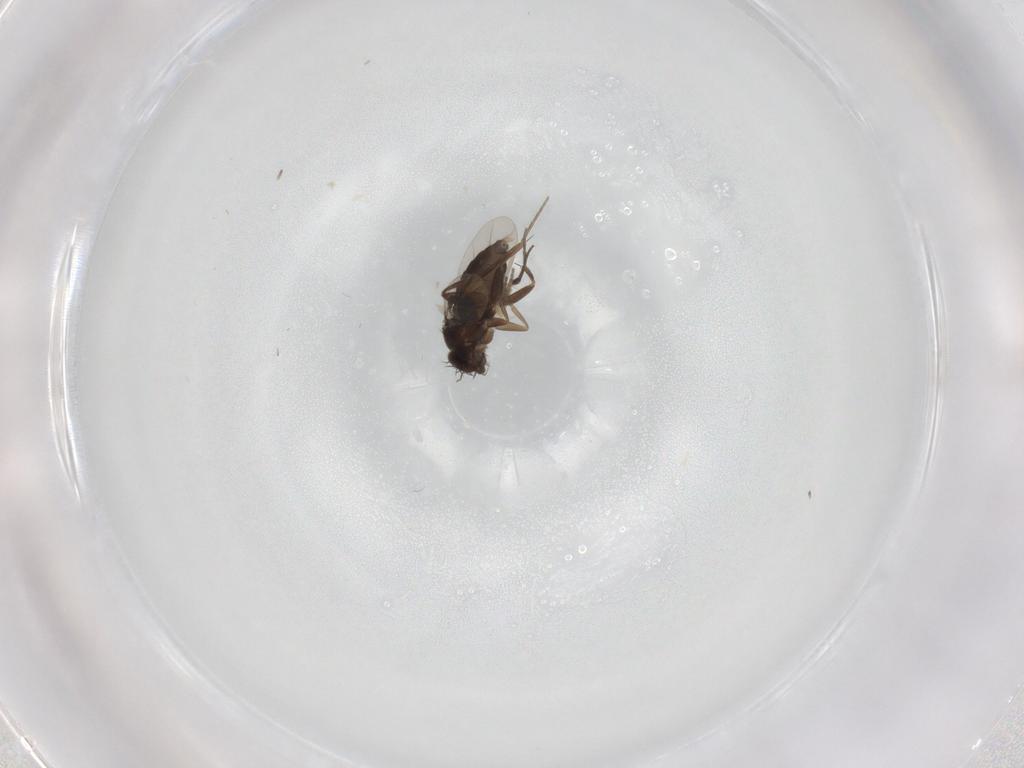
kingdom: Animalia
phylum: Arthropoda
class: Insecta
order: Diptera
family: Phoridae
